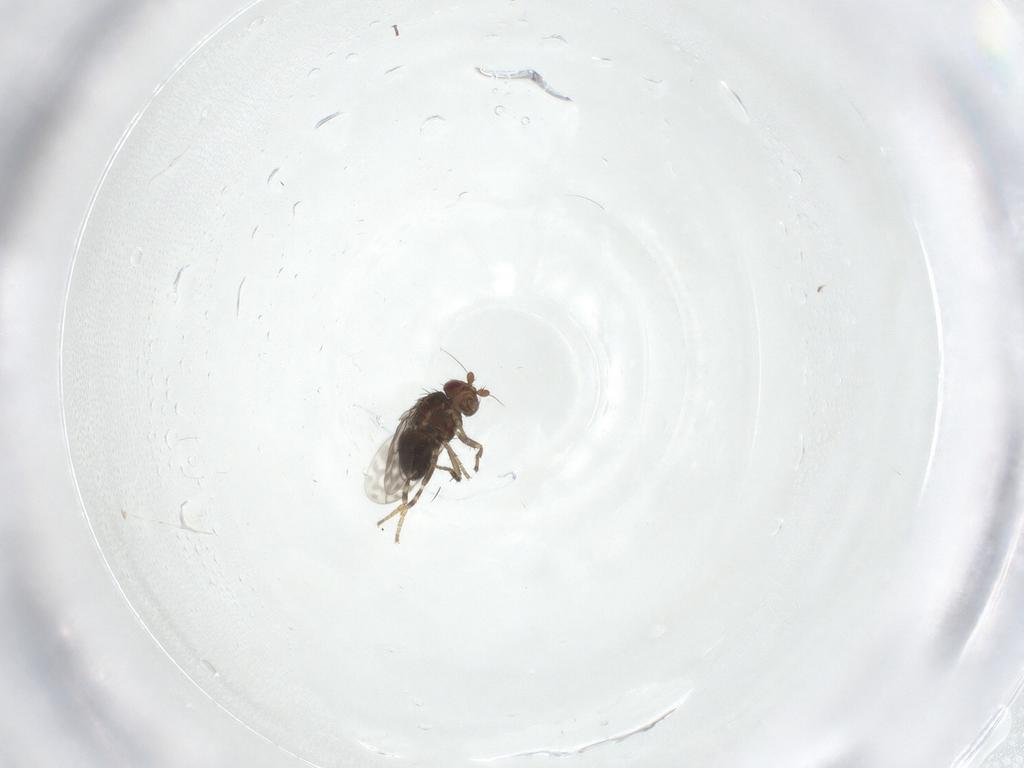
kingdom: Animalia
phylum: Arthropoda
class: Insecta
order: Diptera
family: Sphaeroceridae
